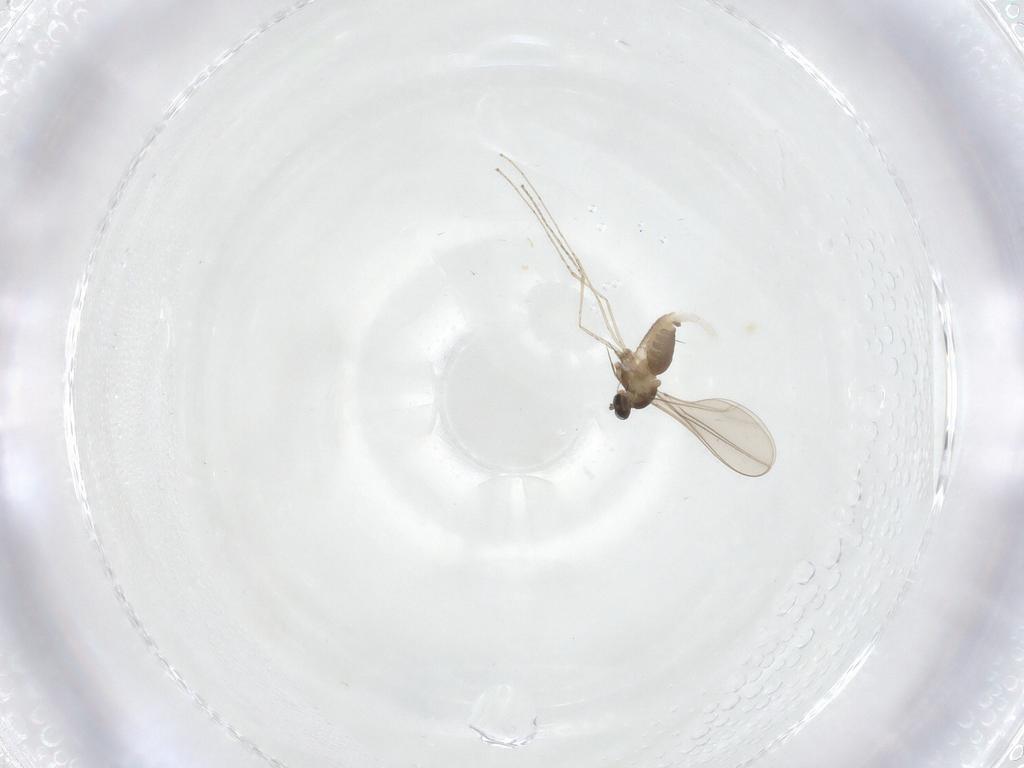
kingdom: Animalia
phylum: Arthropoda
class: Insecta
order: Diptera
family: Cecidomyiidae
